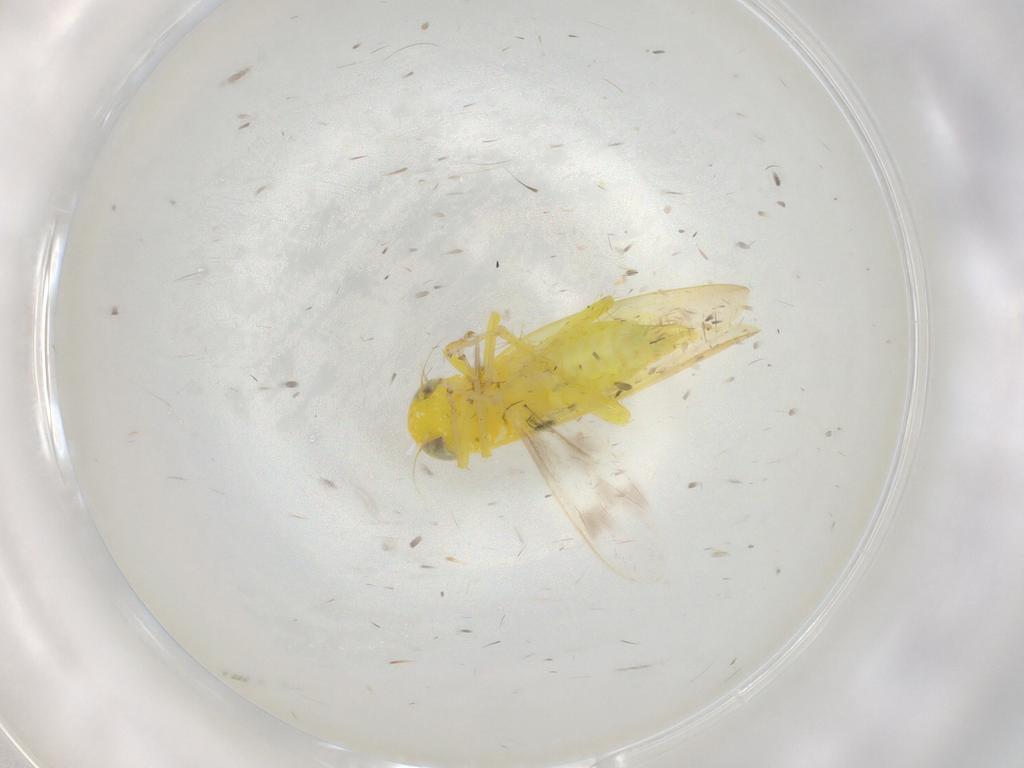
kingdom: Animalia
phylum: Arthropoda
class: Insecta
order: Hemiptera
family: Cicadellidae
